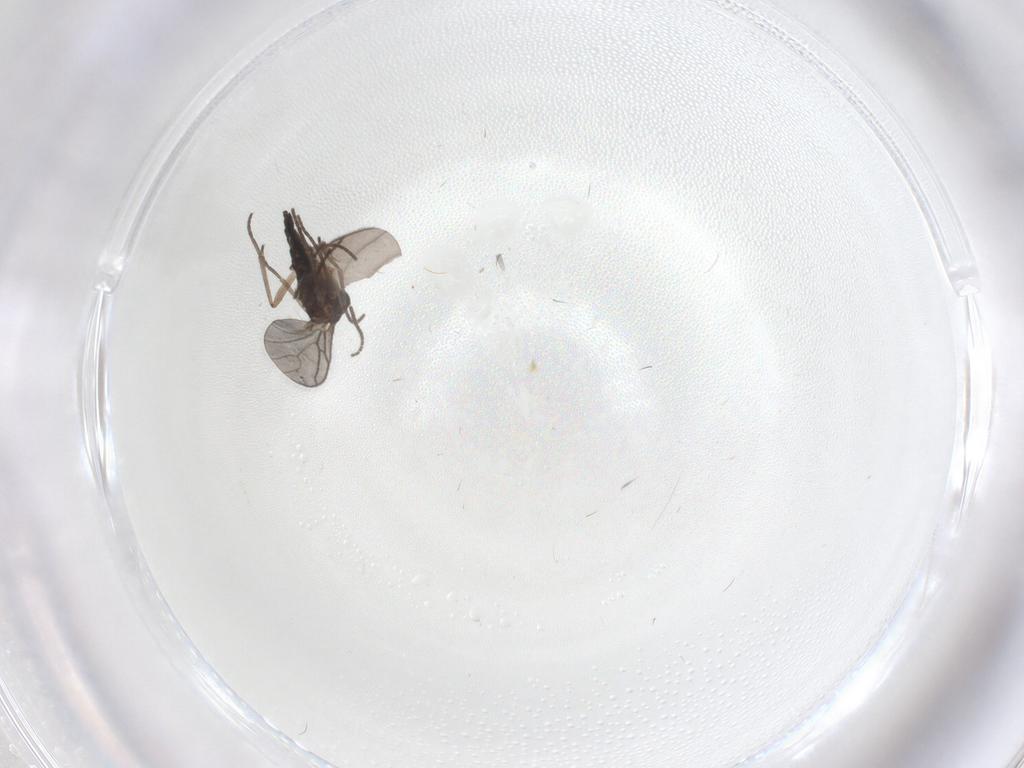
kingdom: Animalia
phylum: Arthropoda
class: Insecta
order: Diptera
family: Sciaridae
